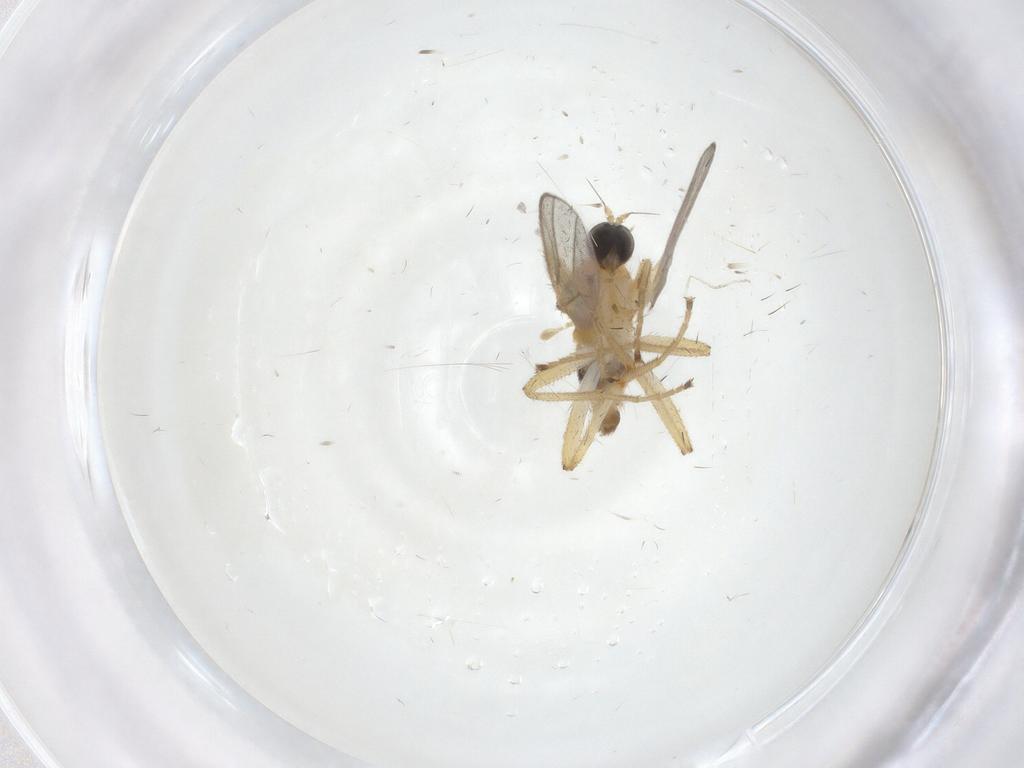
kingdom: Animalia
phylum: Arthropoda
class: Insecta
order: Diptera
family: Hybotidae
